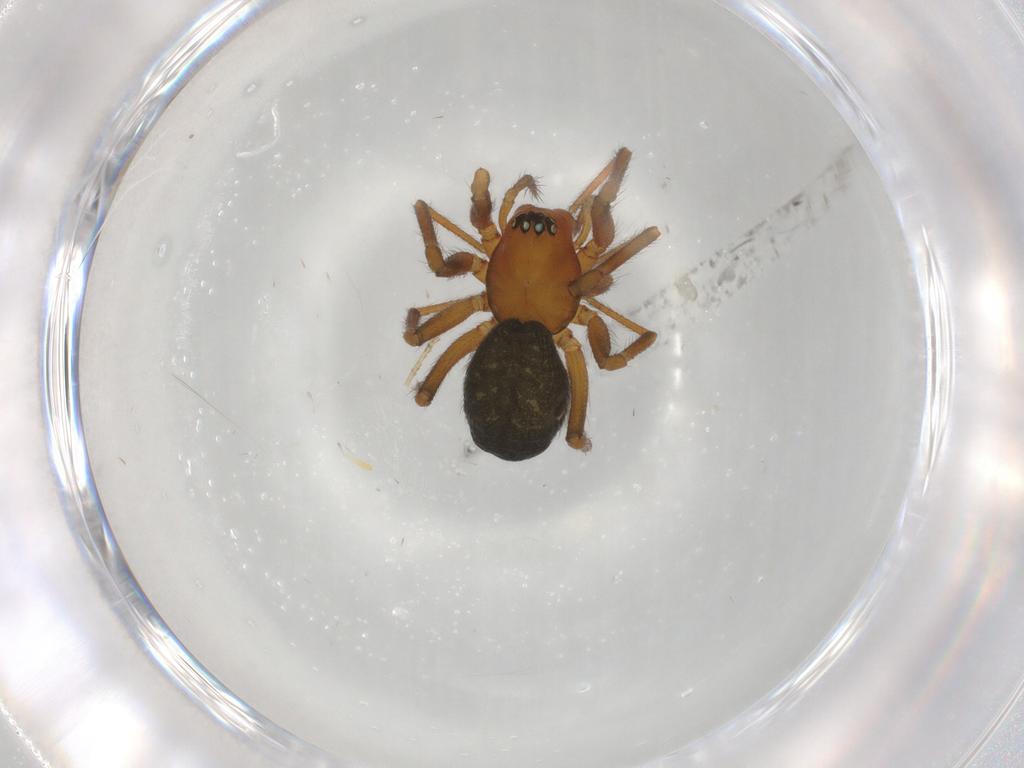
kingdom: Animalia
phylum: Arthropoda
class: Arachnida
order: Araneae
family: Linyphiidae
